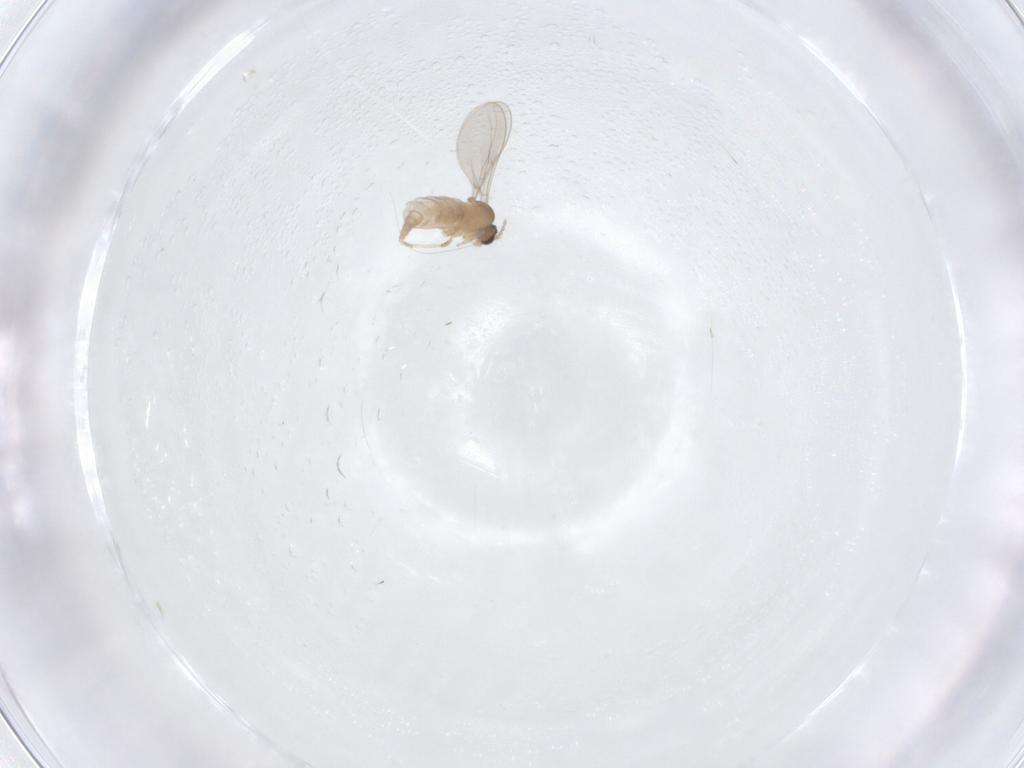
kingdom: Animalia
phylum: Arthropoda
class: Insecta
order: Diptera
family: Cecidomyiidae
